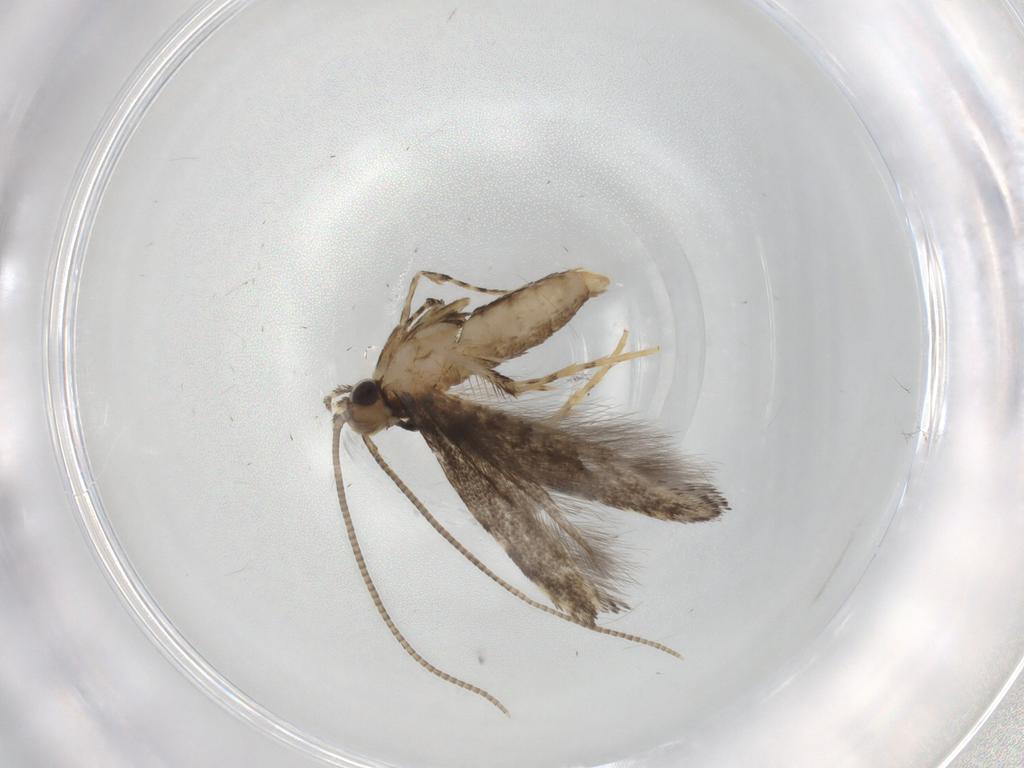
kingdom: Animalia
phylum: Arthropoda
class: Insecta
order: Lepidoptera
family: Gracillariidae
